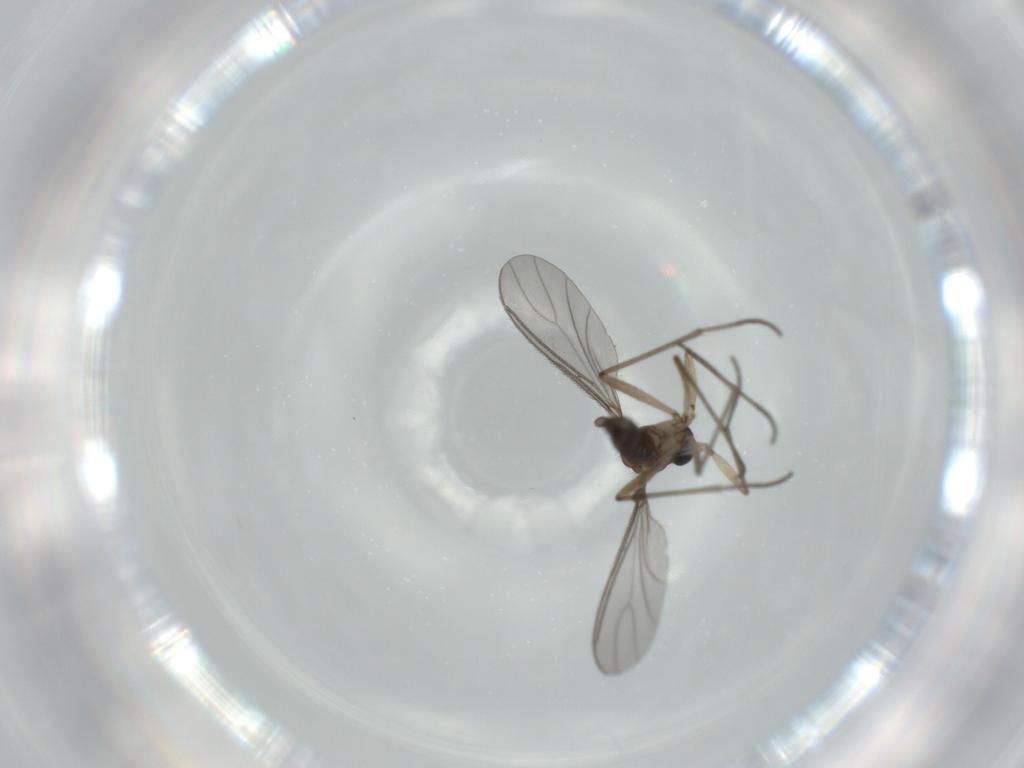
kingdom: Animalia
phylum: Arthropoda
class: Insecta
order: Diptera
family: Sciaridae
